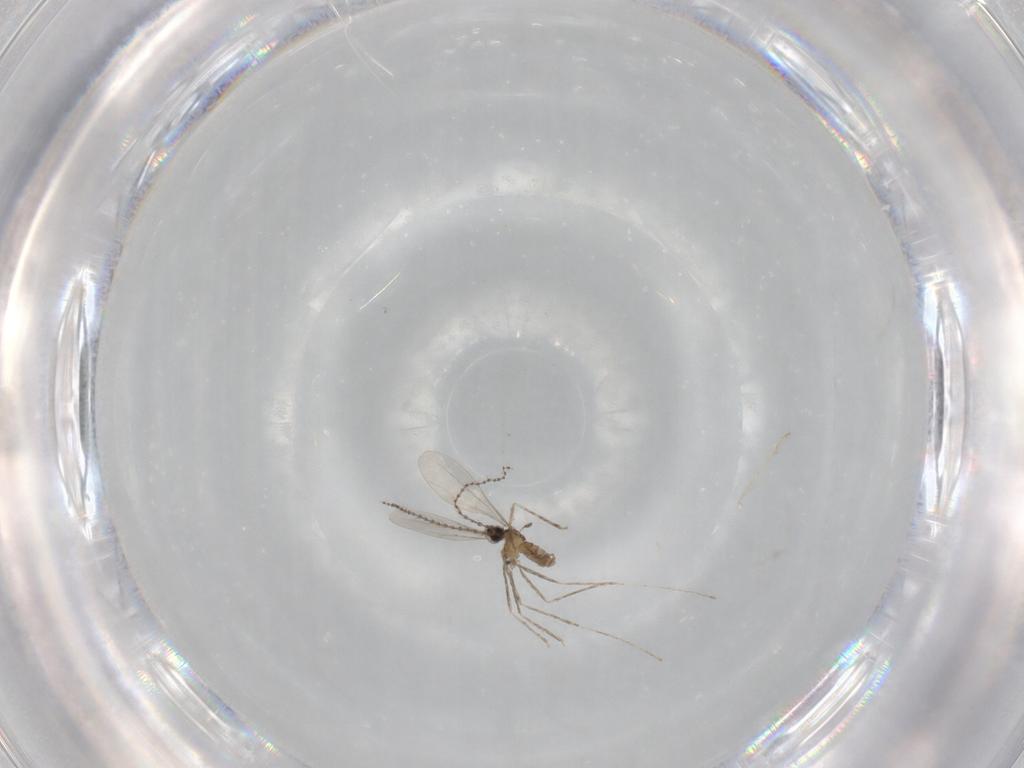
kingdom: Animalia
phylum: Arthropoda
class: Insecta
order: Diptera
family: Cecidomyiidae
